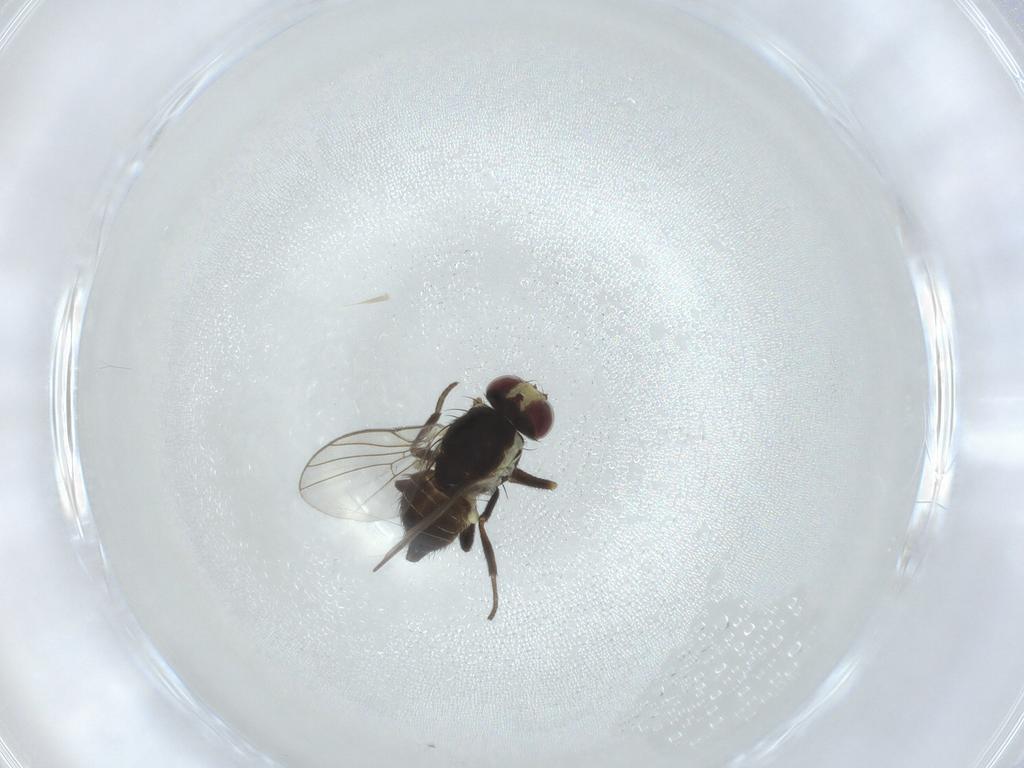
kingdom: Animalia
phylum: Arthropoda
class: Insecta
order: Diptera
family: Agromyzidae
